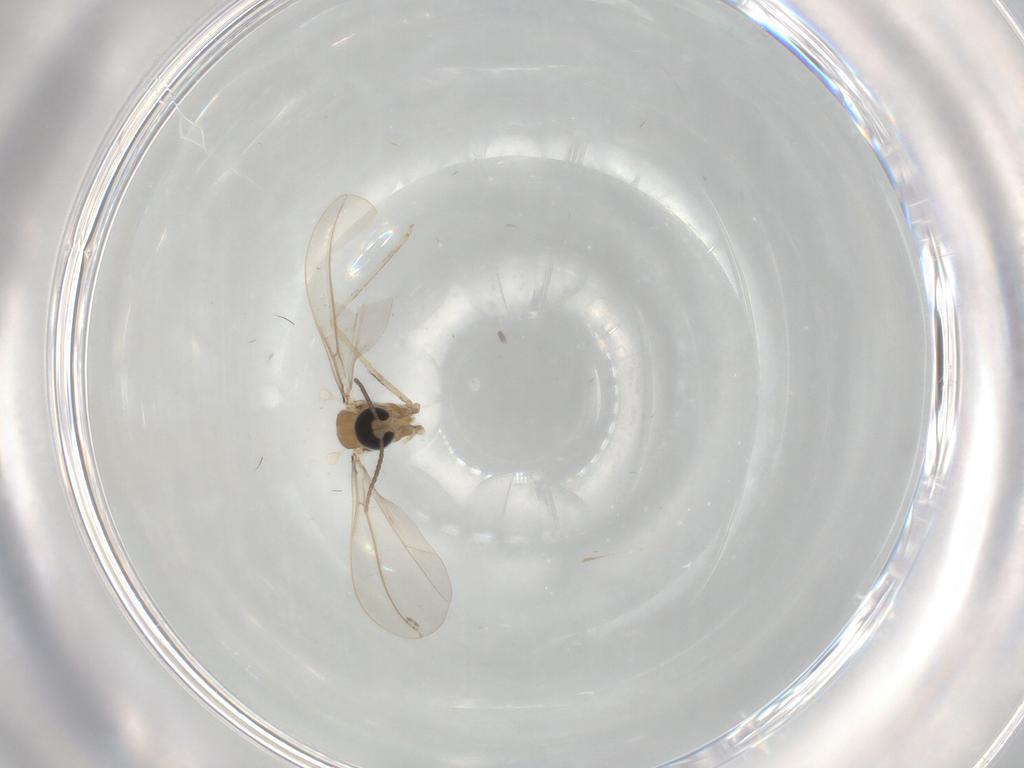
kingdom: Animalia
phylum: Arthropoda
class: Insecta
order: Diptera
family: Cecidomyiidae
